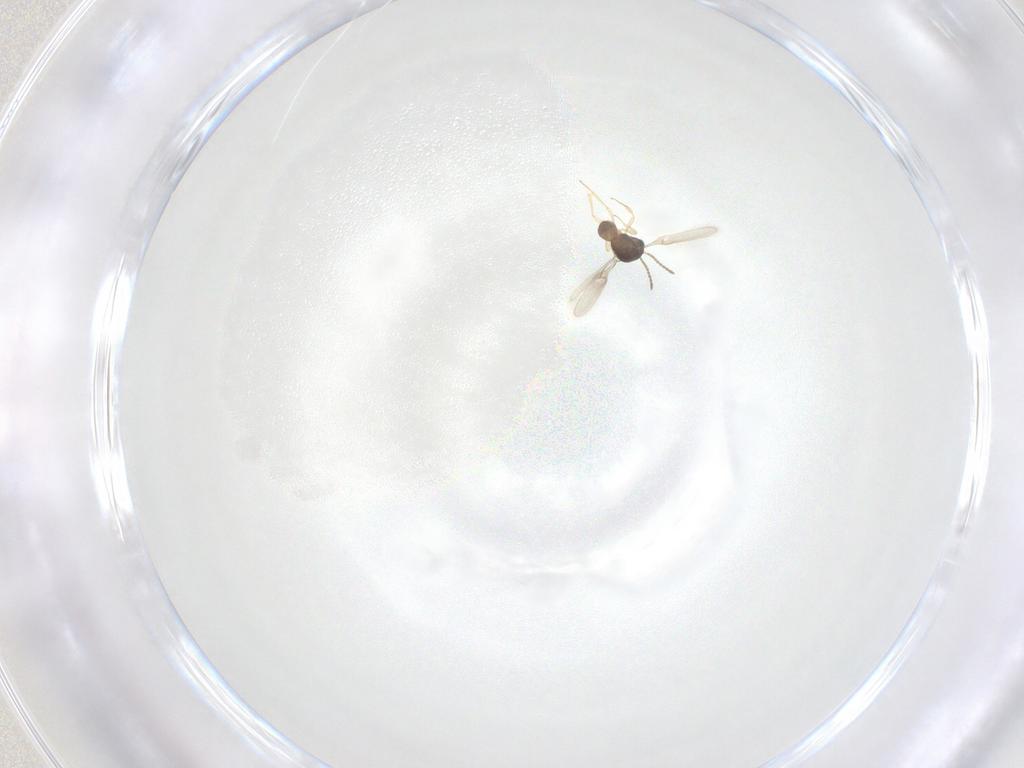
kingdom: Animalia
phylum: Arthropoda
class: Insecta
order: Hymenoptera
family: Scelionidae
